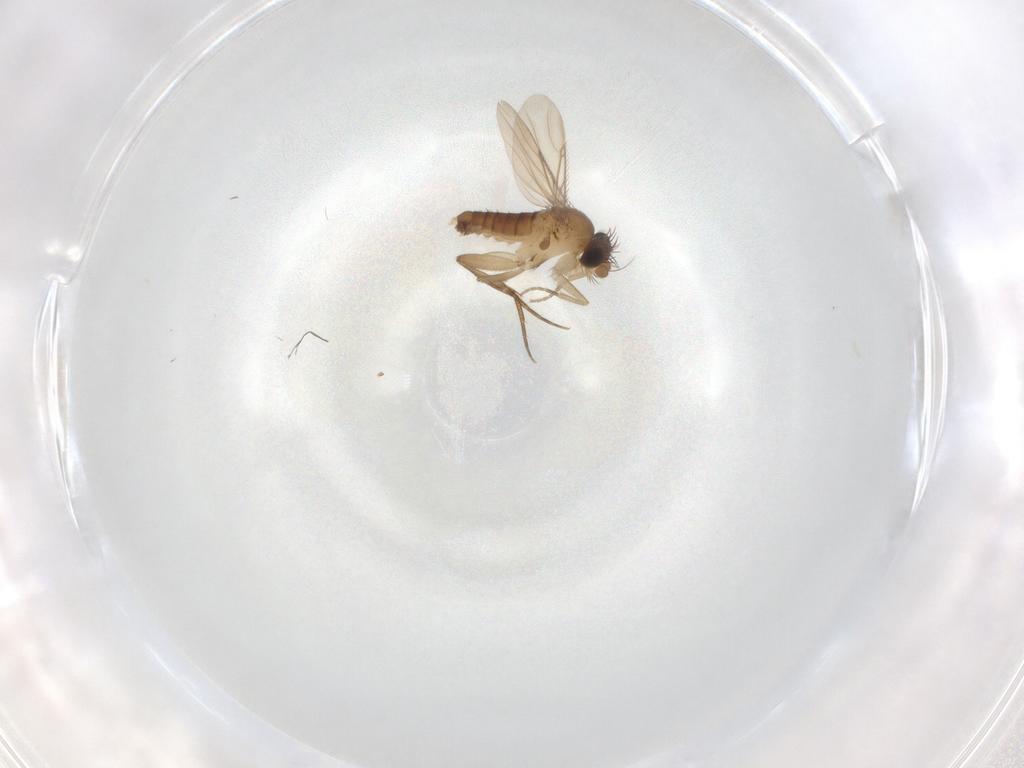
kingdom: Animalia
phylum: Arthropoda
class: Insecta
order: Diptera
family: Phoridae
